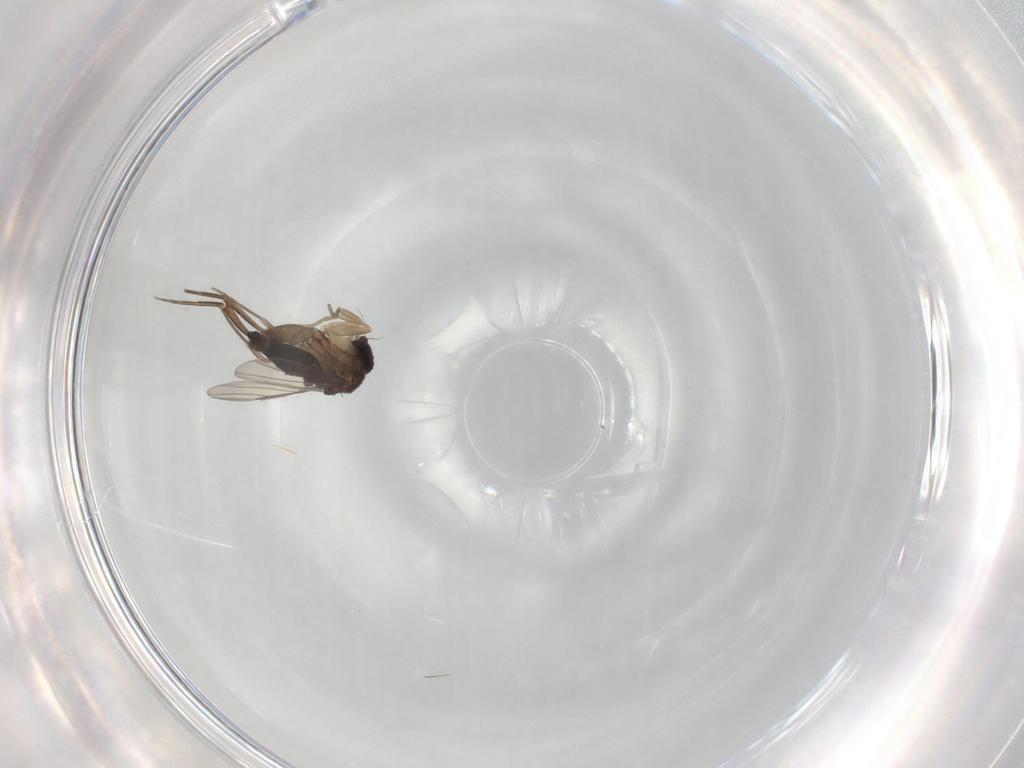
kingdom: Animalia
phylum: Arthropoda
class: Insecta
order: Diptera
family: Phoridae
